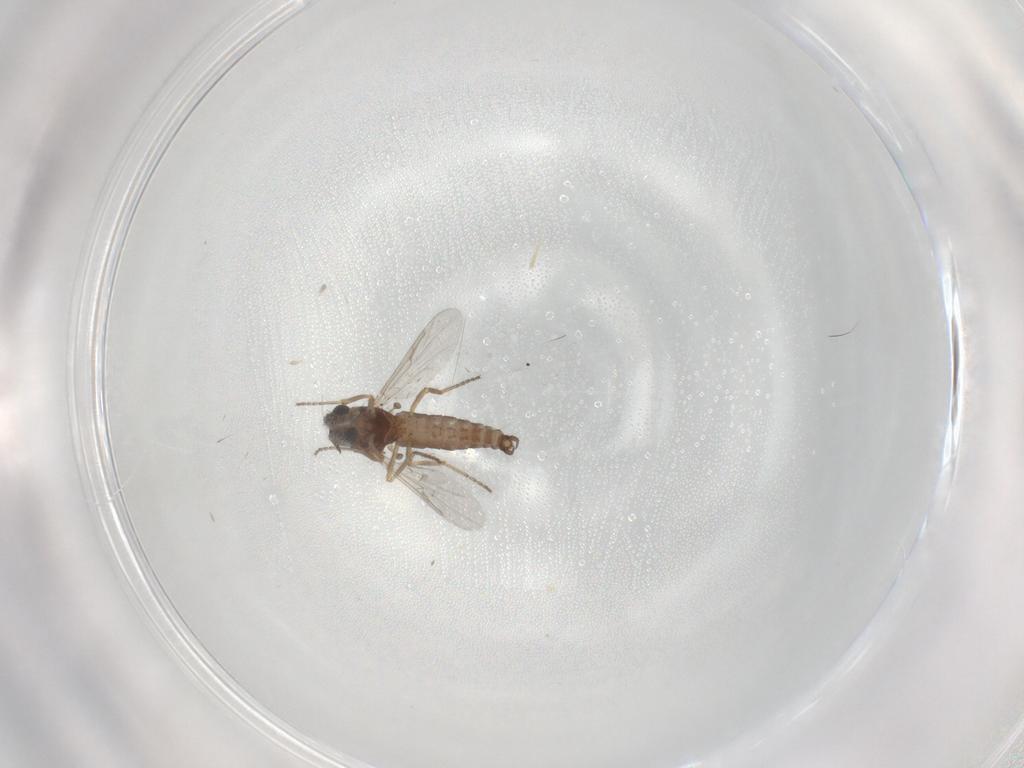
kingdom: Animalia
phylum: Arthropoda
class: Insecta
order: Diptera
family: Ceratopogonidae
